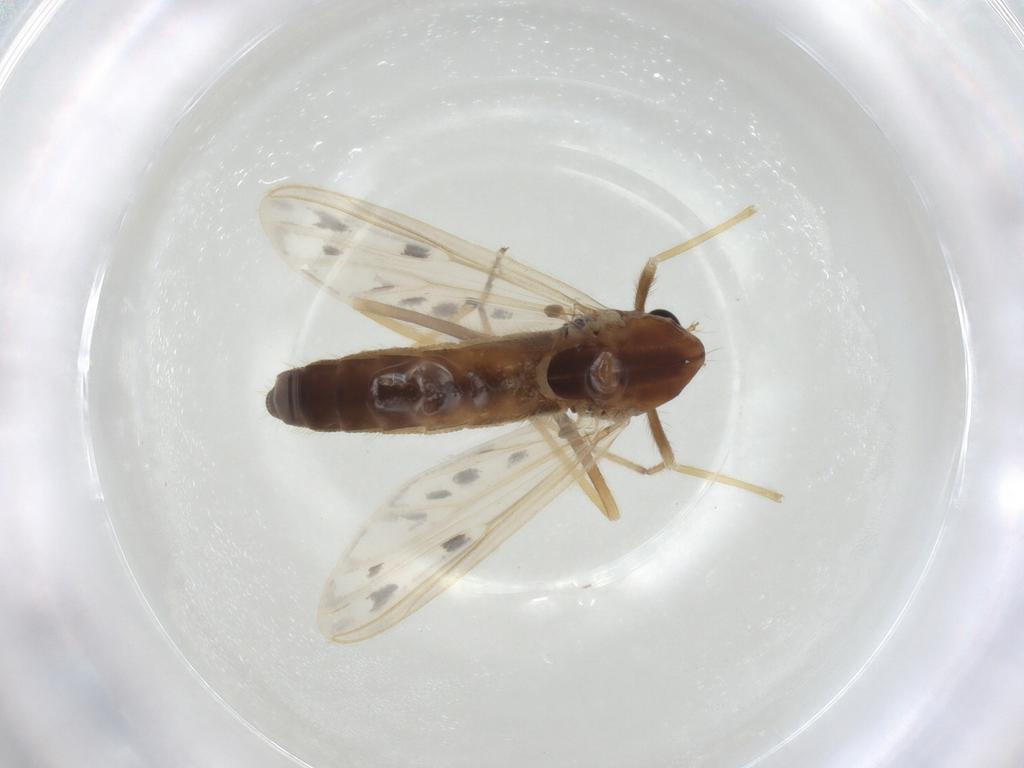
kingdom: Animalia
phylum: Arthropoda
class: Insecta
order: Diptera
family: Chironomidae
